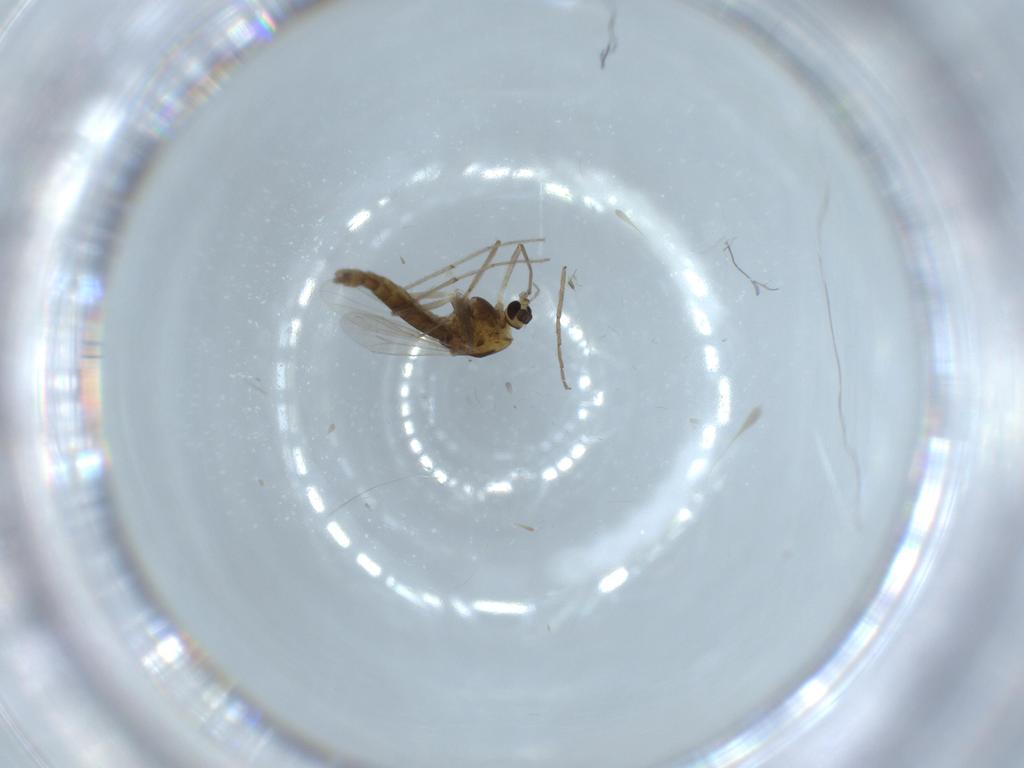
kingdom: Animalia
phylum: Arthropoda
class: Insecta
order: Diptera
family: Chironomidae
